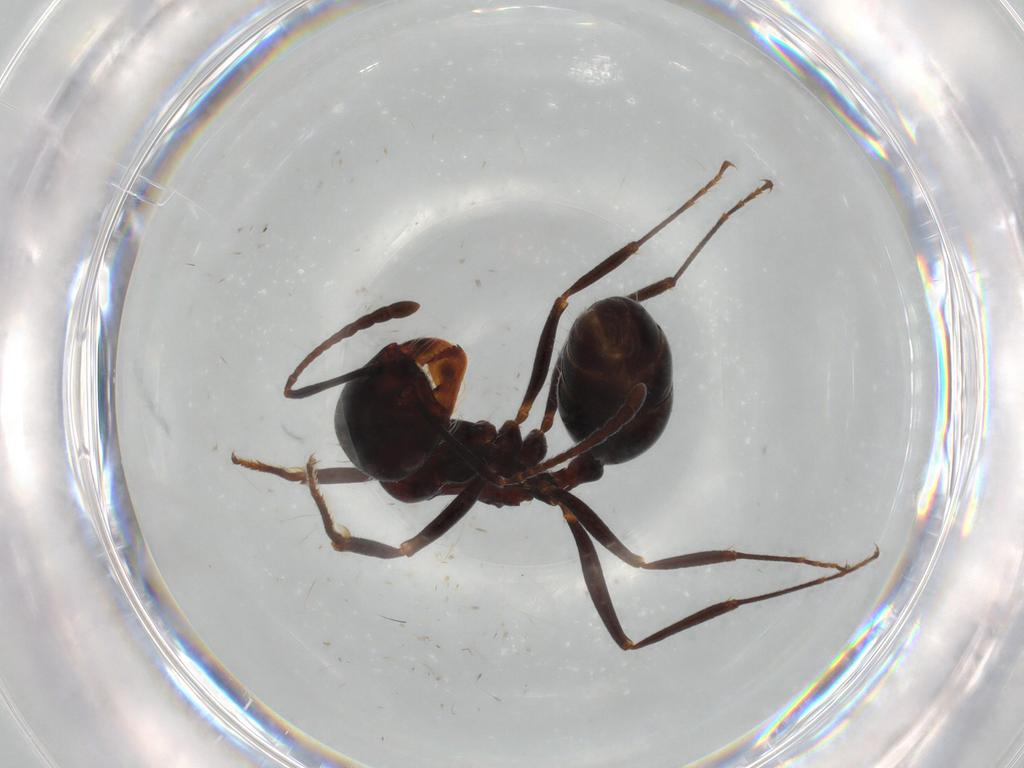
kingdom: Animalia
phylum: Arthropoda
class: Insecta
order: Hymenoptera
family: Formicidae
